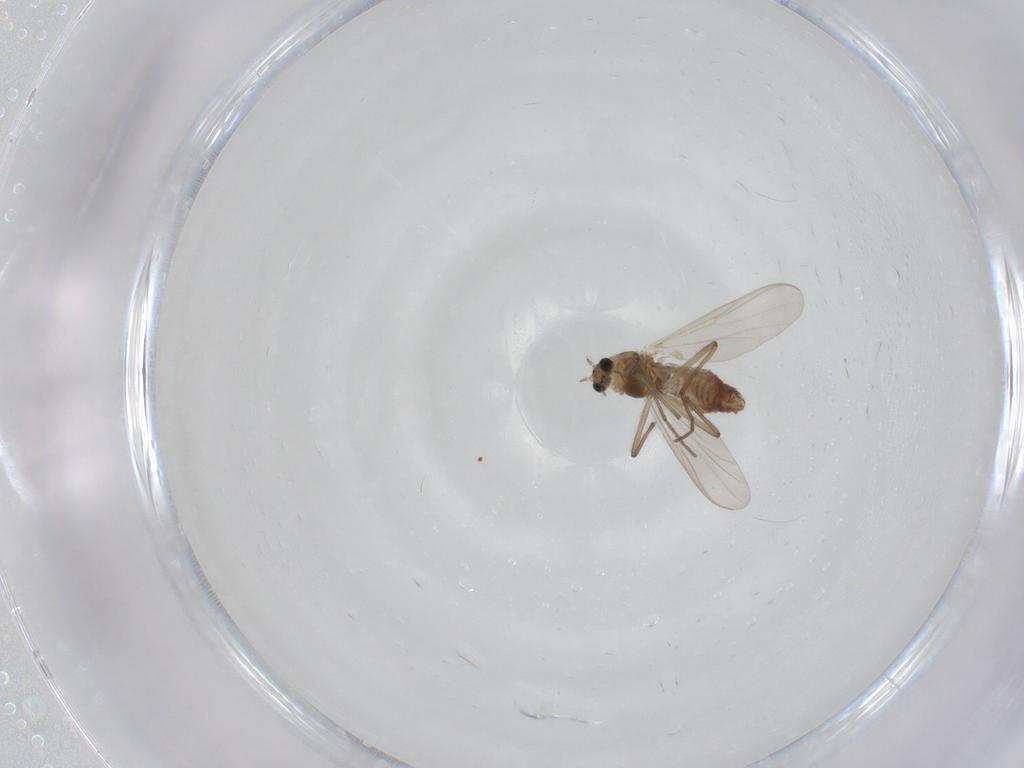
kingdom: Animalia
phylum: Arthropoda
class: Insecta
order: Diptera
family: Chironomidae
